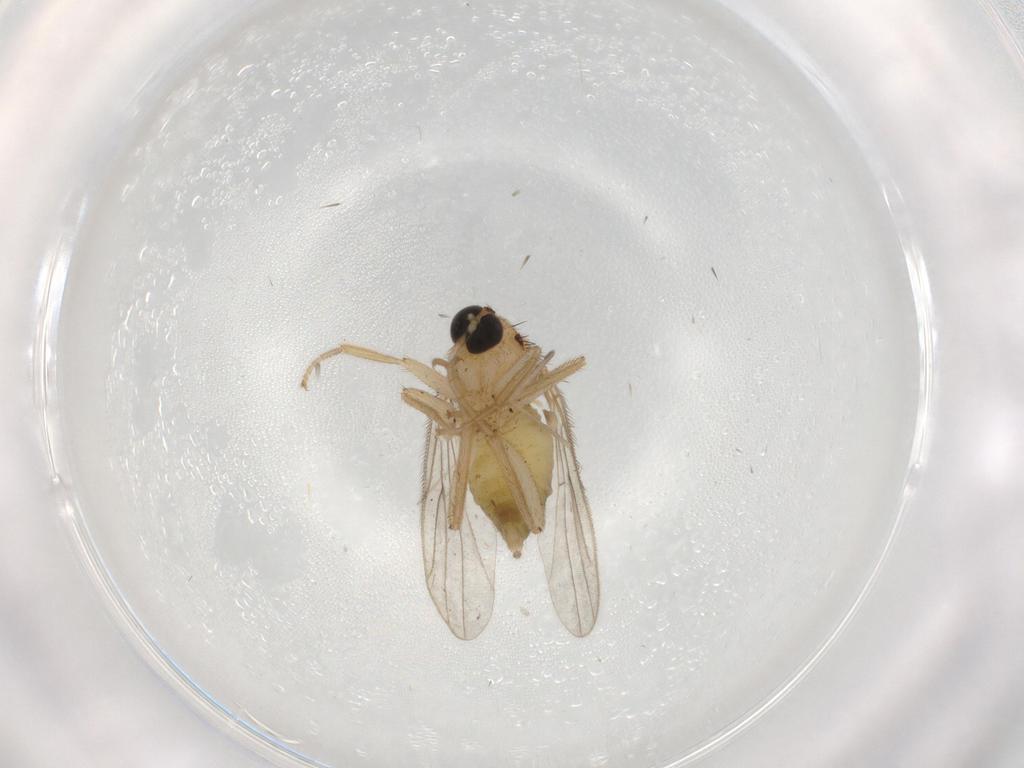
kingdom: Animalia
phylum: Arthropoda
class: Insecta
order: Diptera
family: Hybotidae
